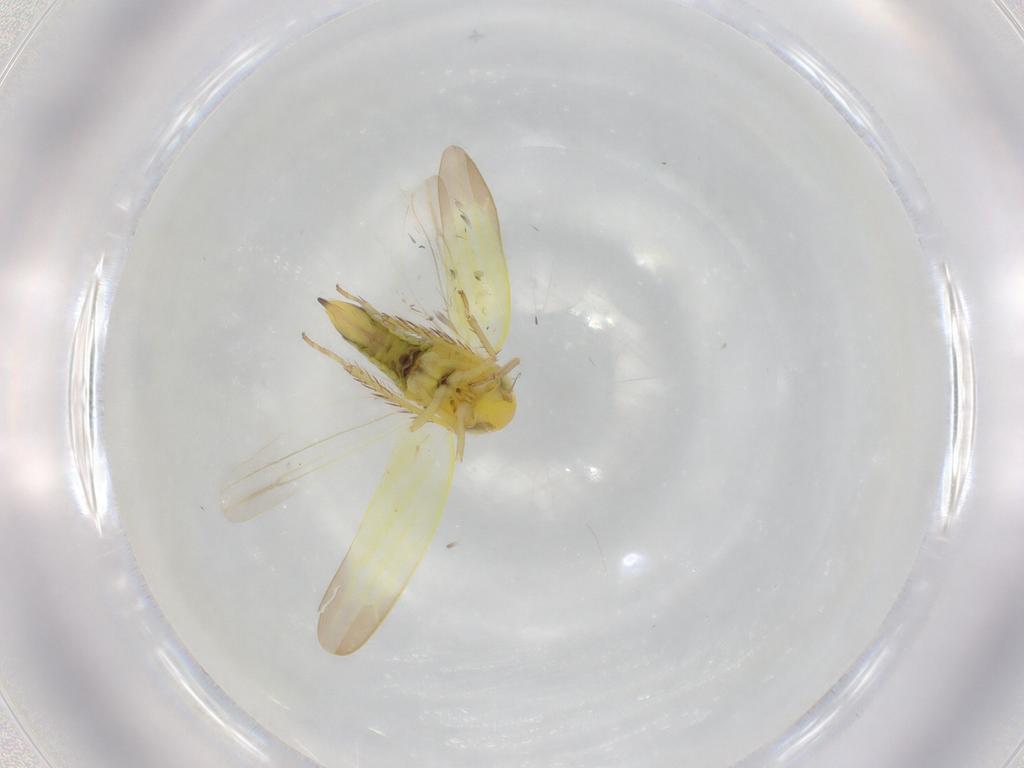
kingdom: Animalia
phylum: Arthropoda
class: Insecta
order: Hemiptera
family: Cicadellidae
